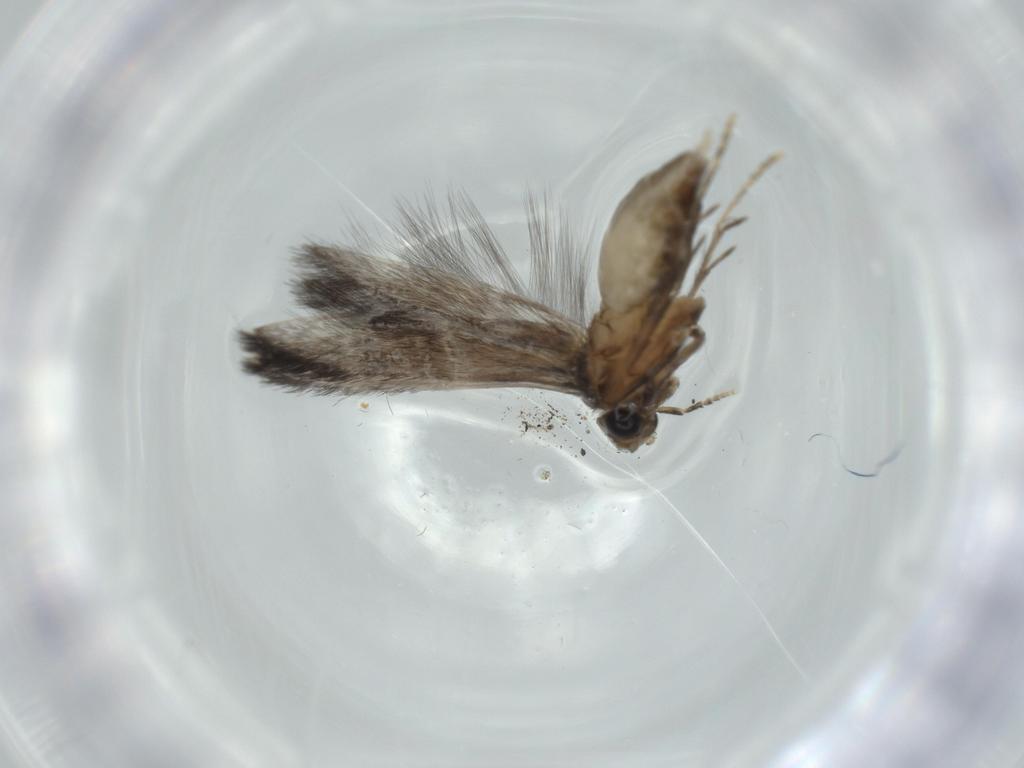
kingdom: Animalia
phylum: Arthropoda
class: Insecta
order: Trichoptera
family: Hydroptilidae
